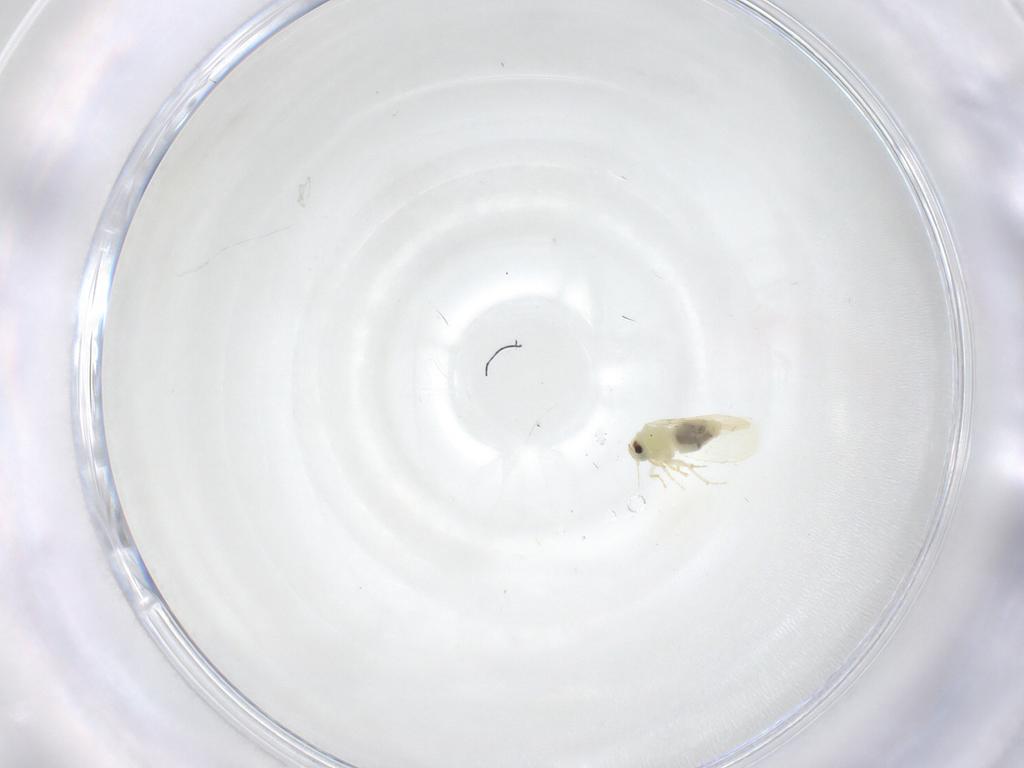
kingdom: Animalia
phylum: Arthropoda
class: Insecta
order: Hemiptera
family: Aleyrodidae
